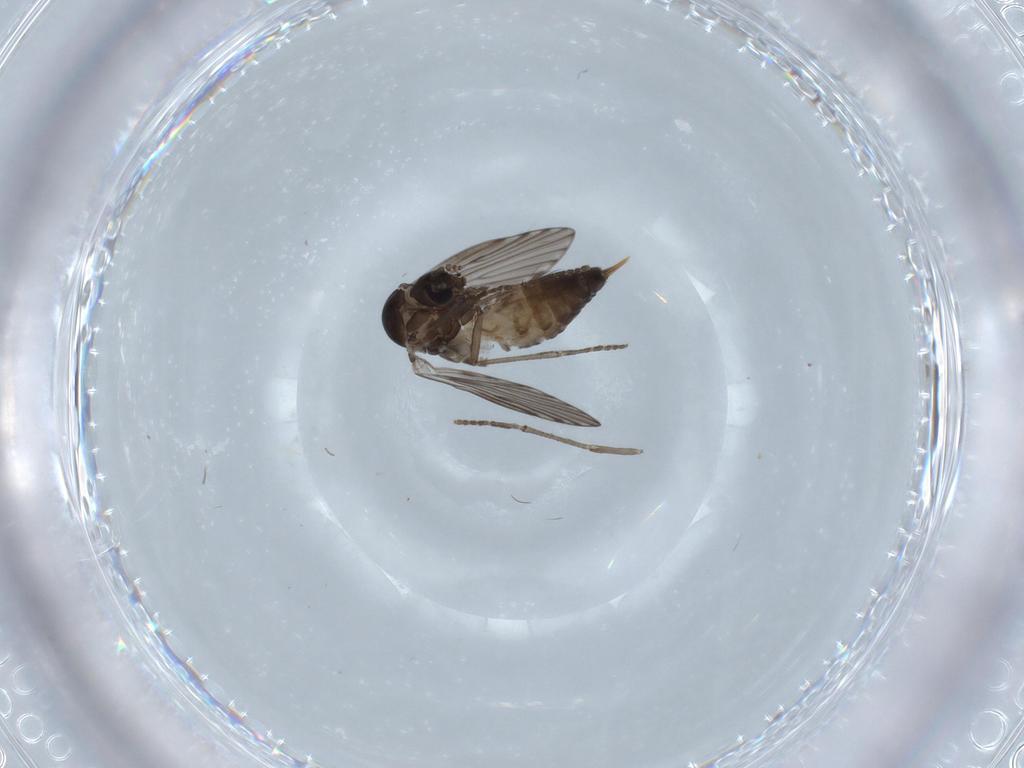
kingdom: Animalia
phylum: Arthropoda
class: Insecta
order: Diptera
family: Psychodidae
